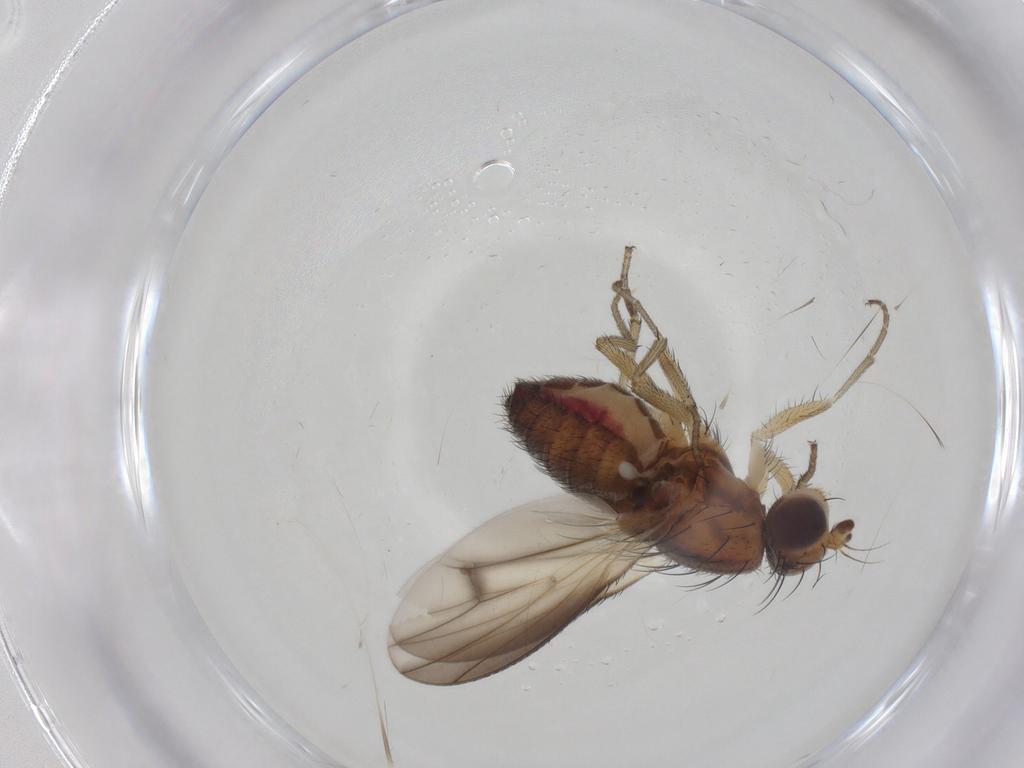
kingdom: Animalia
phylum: Arthropoda
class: Insecta
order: Diptera
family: Heleomyzidae
